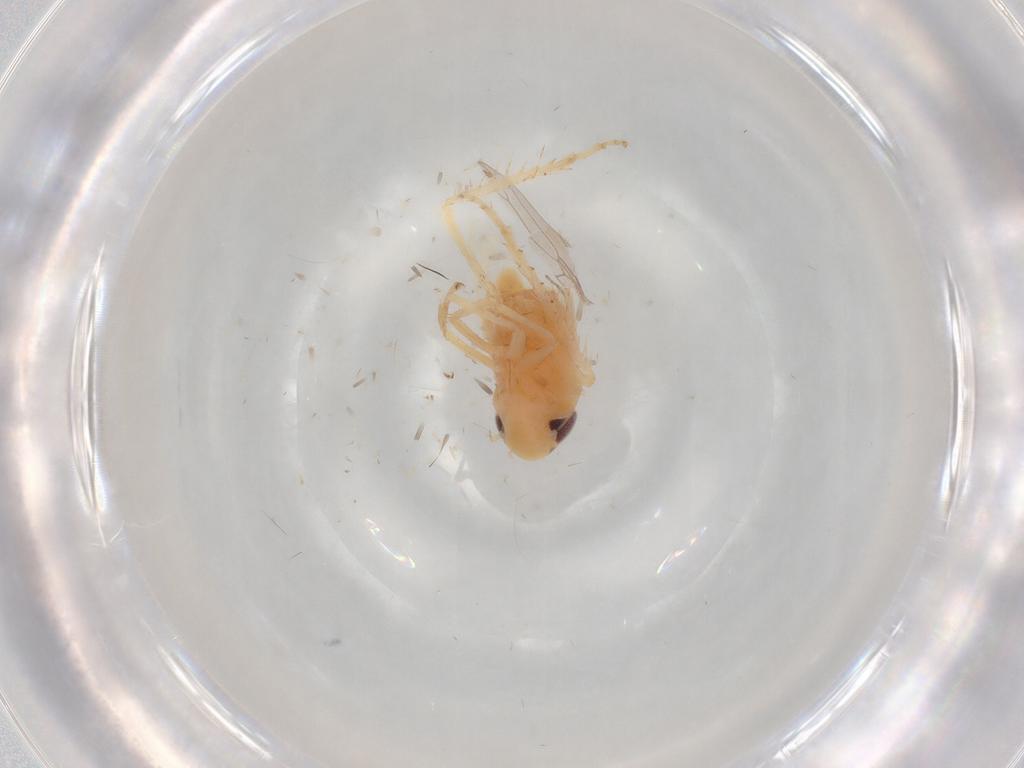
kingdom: Animalia
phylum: Arthropoda
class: Insecta
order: Hemiptera
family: Cicadellidae
